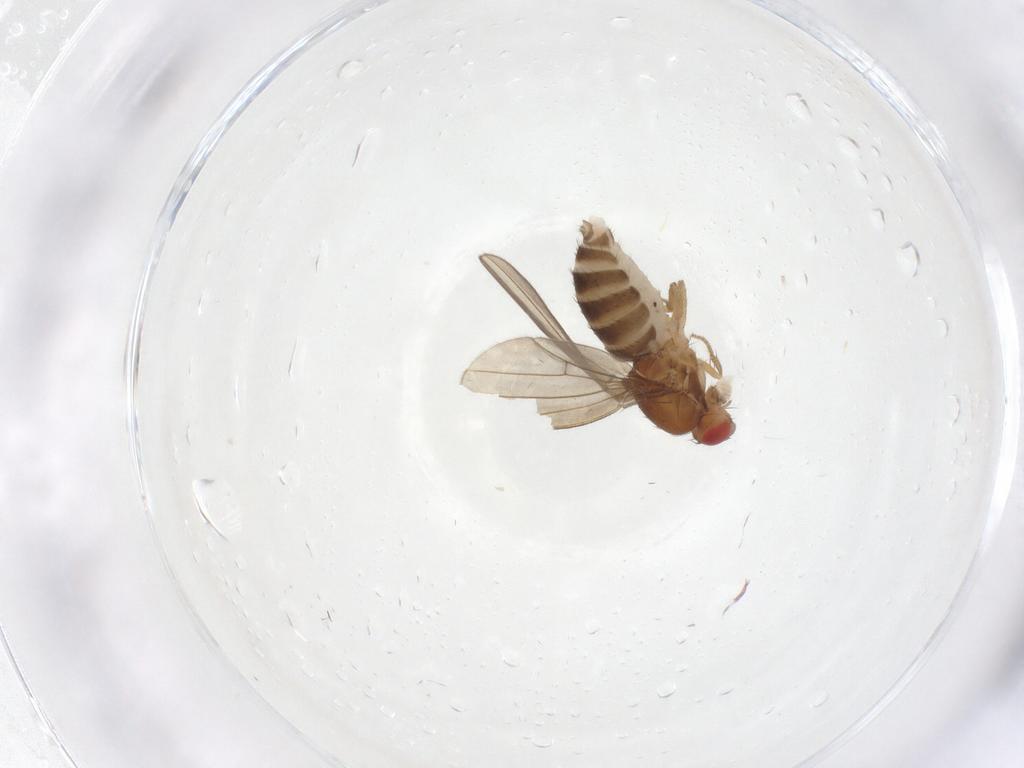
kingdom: Animalia
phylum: Arthropoda
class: Insecta
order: Diptera
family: Drosophilidae
